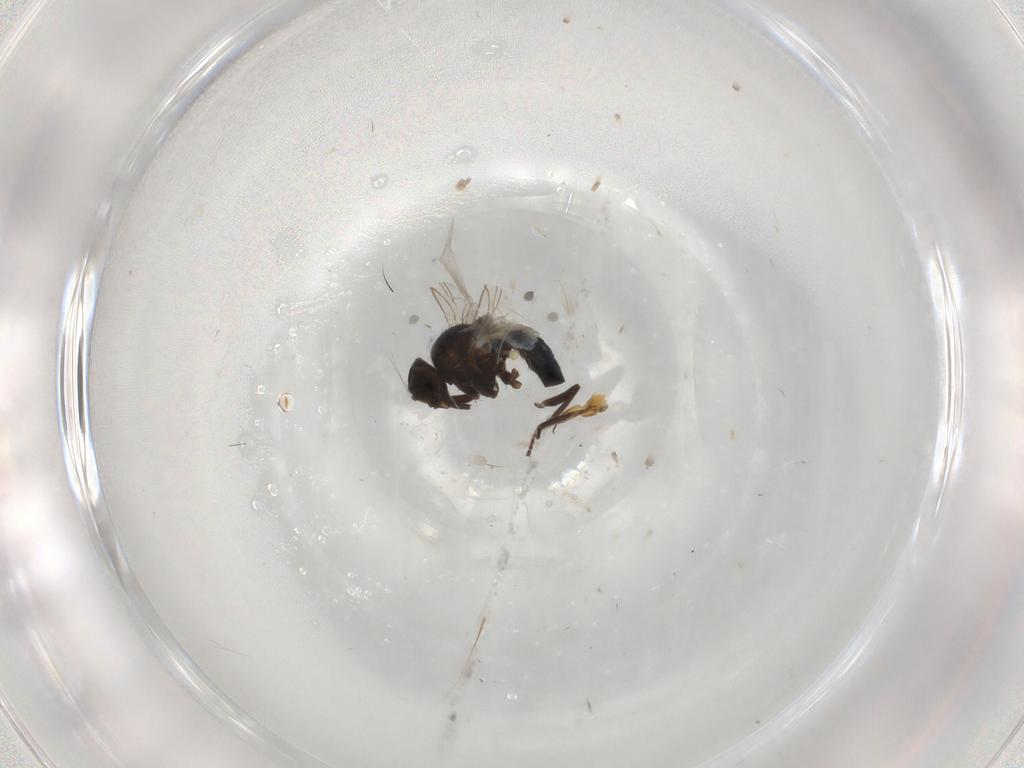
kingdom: Animalia
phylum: Arthropoda
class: Insecta
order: Diptera
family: Agromyzidae
